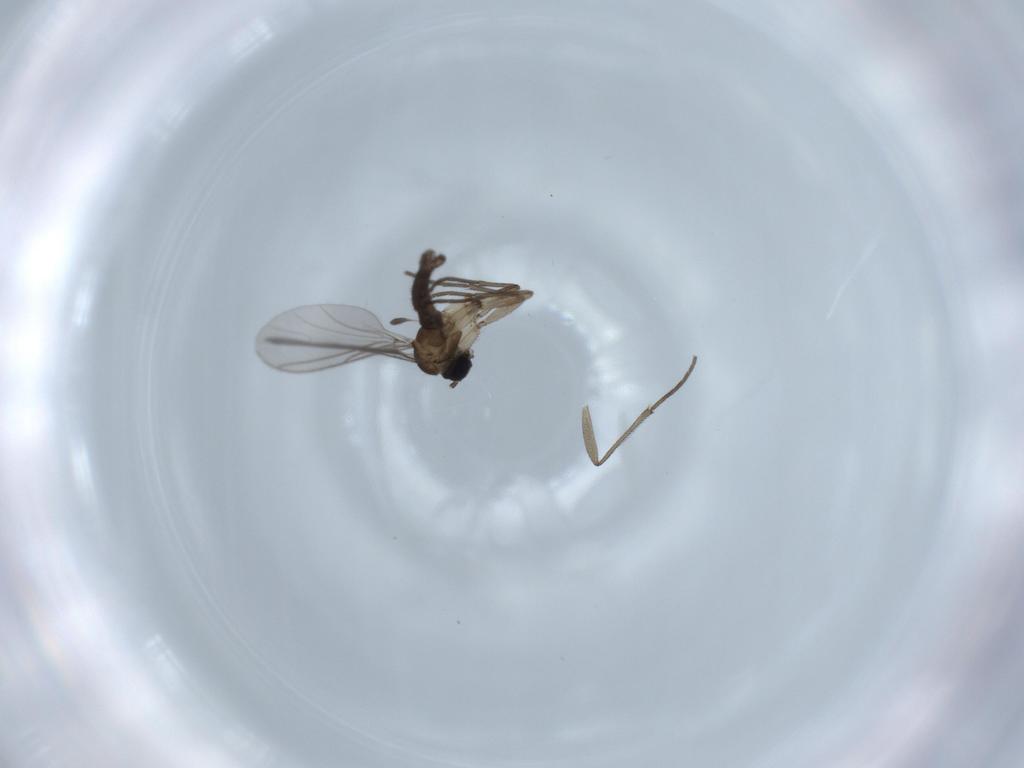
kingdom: Animalia
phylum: Arthropoda
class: Insecta
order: Diptera
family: Sciaridae
